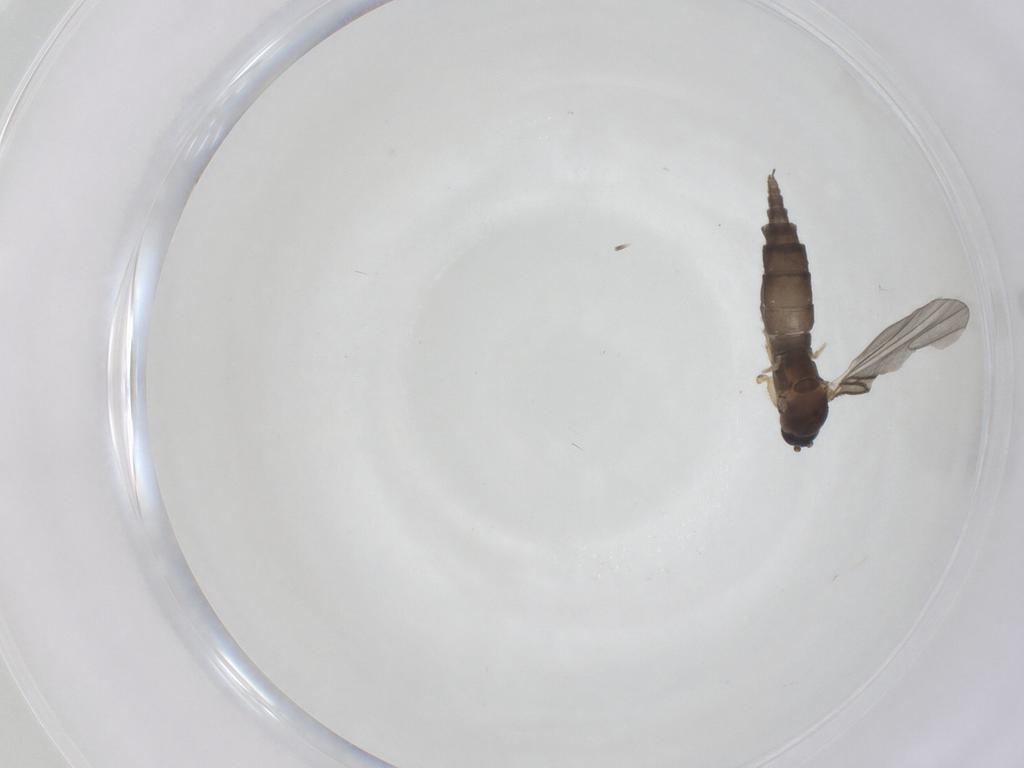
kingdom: Animalia
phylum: Arthropoda
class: Insecta
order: Diptera
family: Sciaridae
